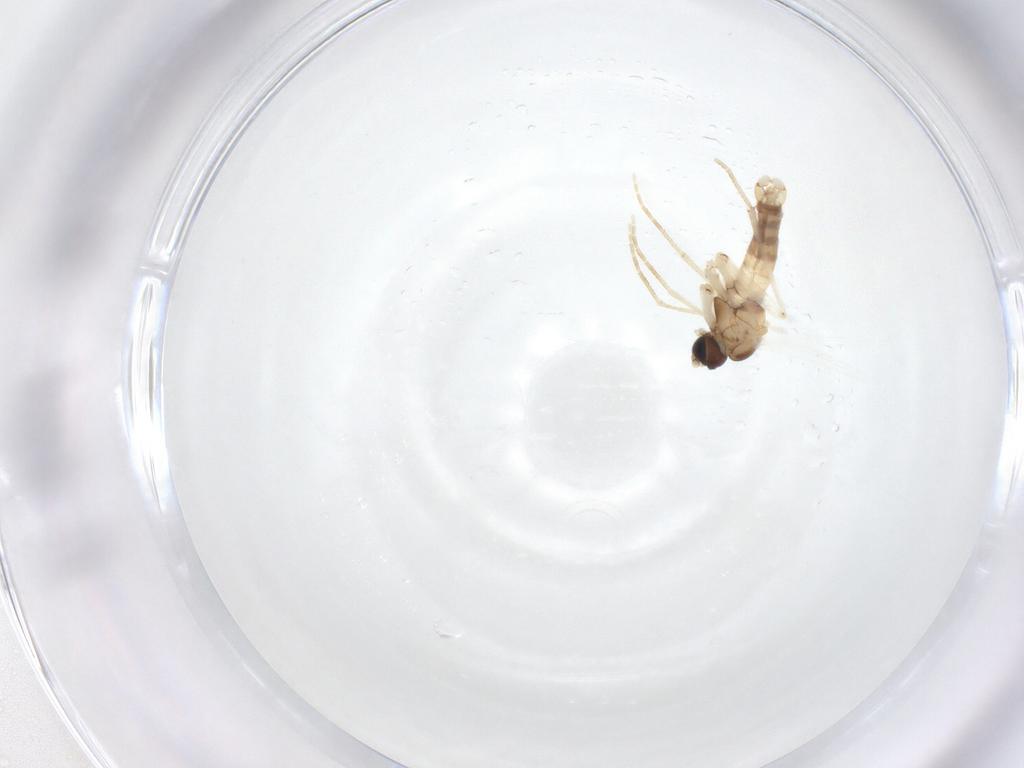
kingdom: Animalia
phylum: Arthropoda
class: Insecta
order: Diptera
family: Sciaridae
